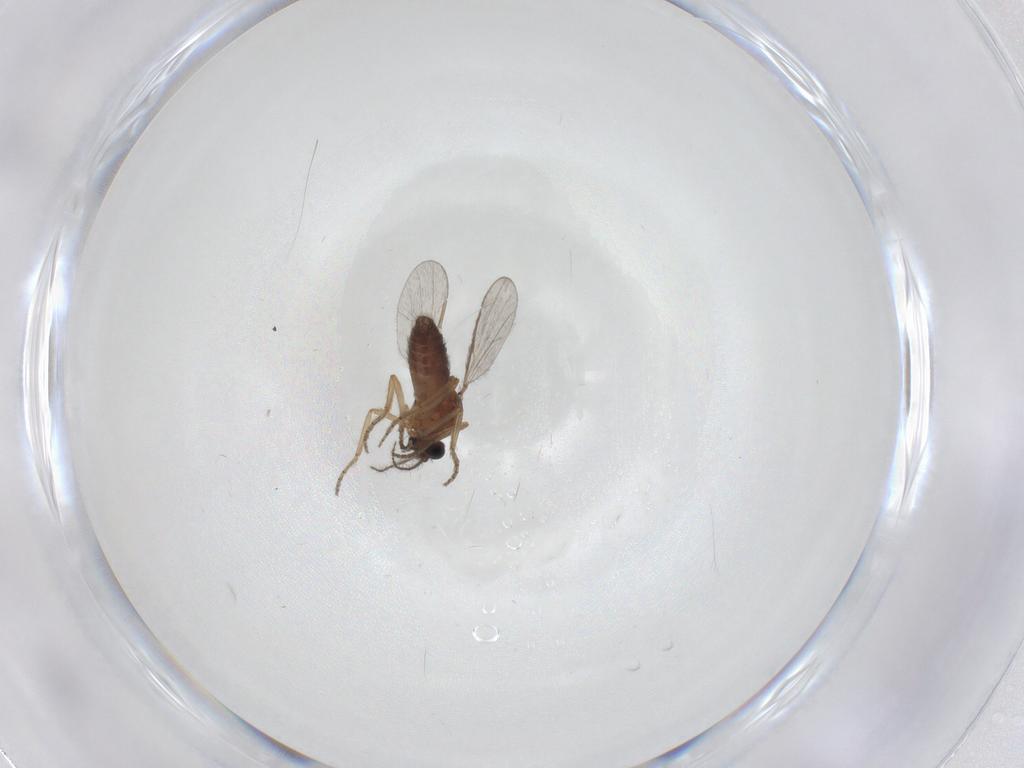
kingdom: Animalia
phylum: Arthropoda
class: Insecta
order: Diptera
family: Ceratopogonidae
